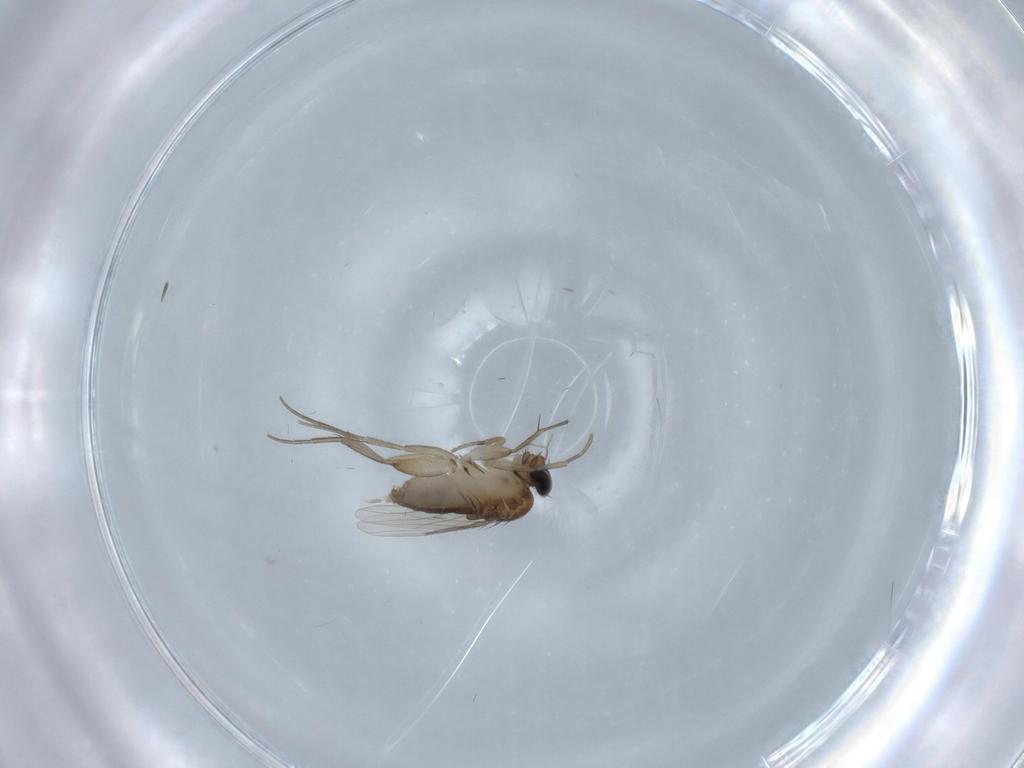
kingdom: Animalia
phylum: Arthropoda
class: Insecta
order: Diptera
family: Phoridae
